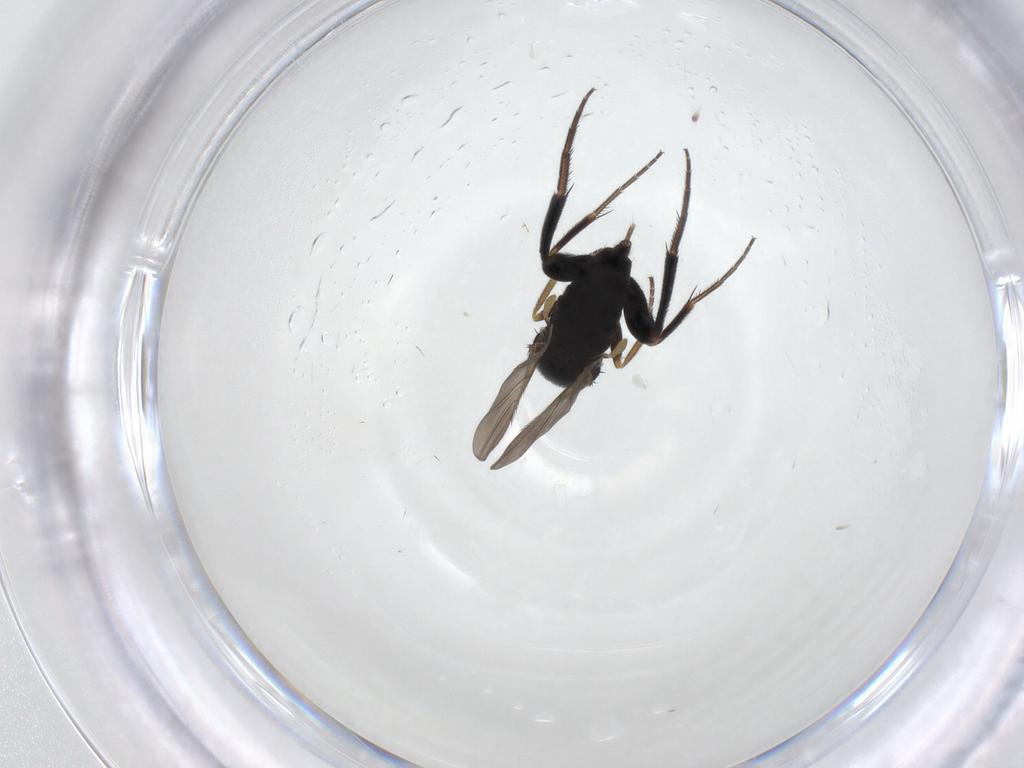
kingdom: Animalia
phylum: Arthropoda
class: Insecta
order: Diptera
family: Phoridae
